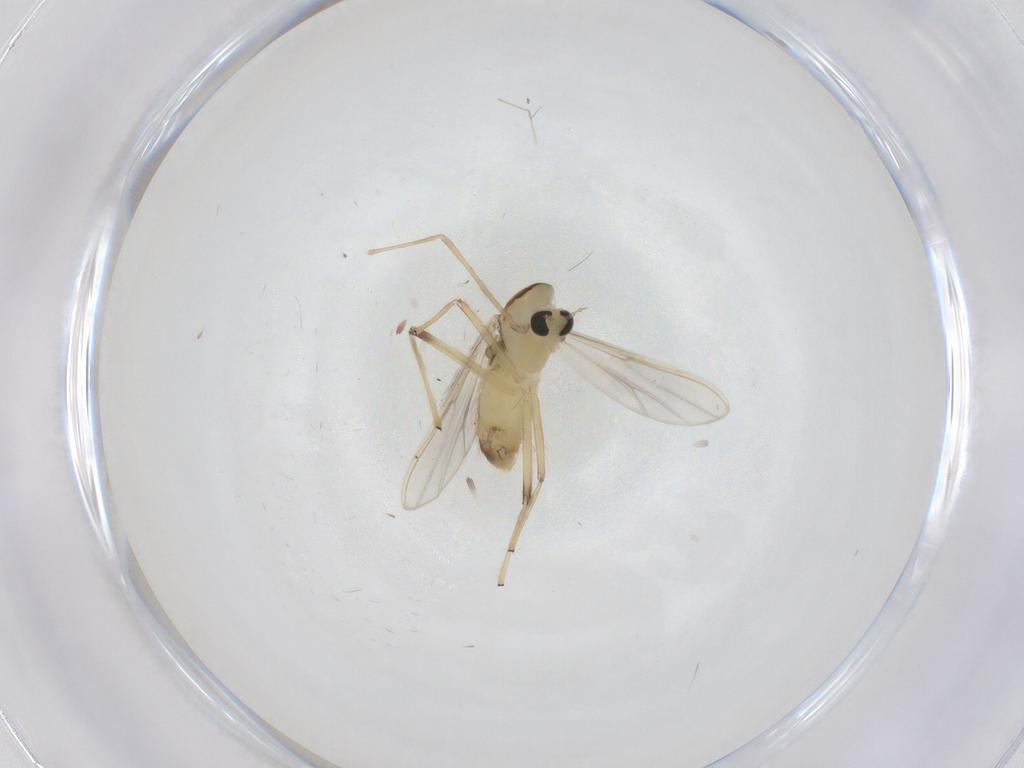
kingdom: Animalia
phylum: Arthropoda
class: Insecta
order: Diptera
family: Chironomidae
